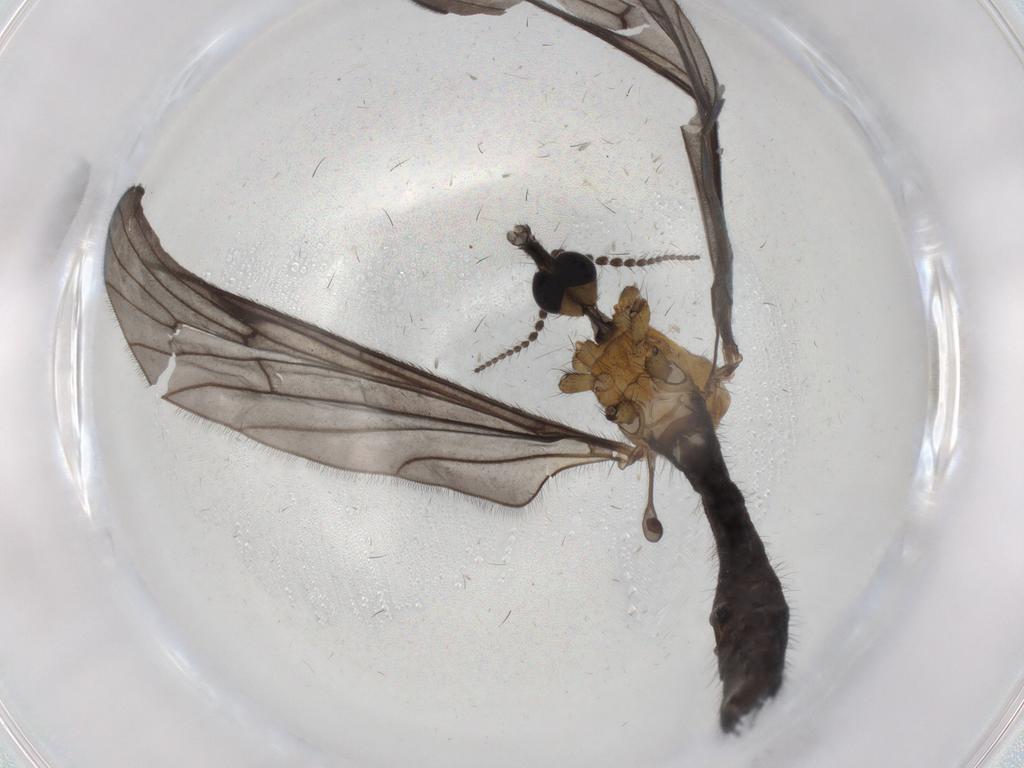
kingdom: Animalia
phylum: Arthropoda
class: Insecta
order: Diptera
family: Limoniidae
